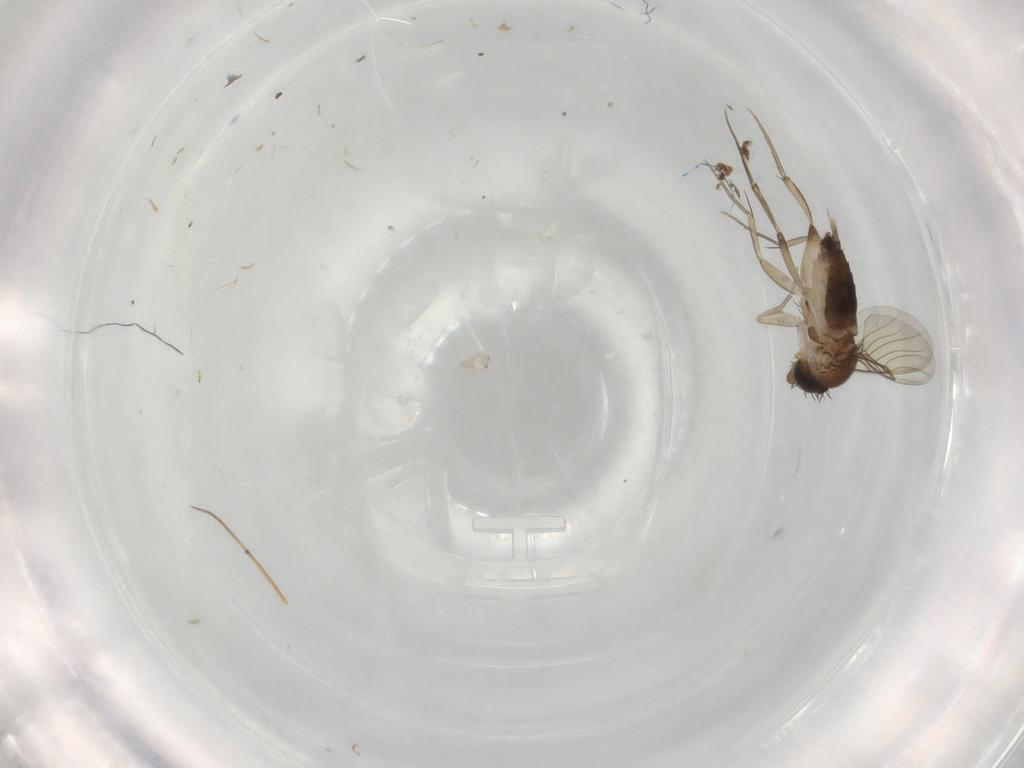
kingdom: Animalia
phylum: Arthropoda
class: Insecta
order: Diptera
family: Phoridae
